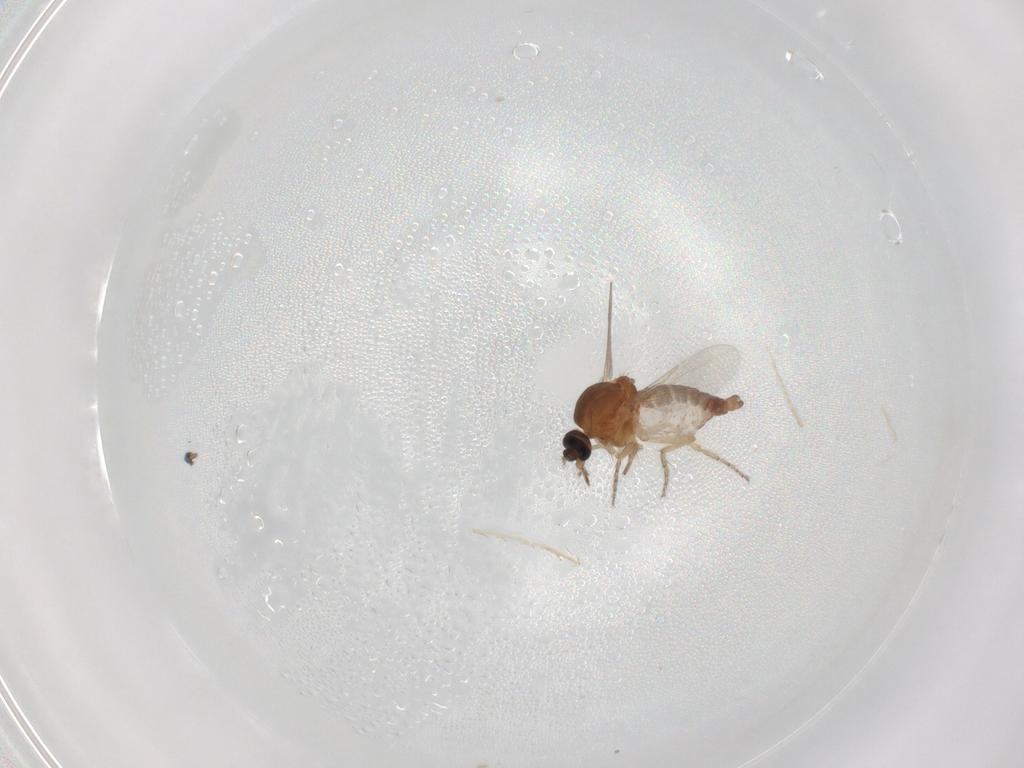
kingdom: Animalia
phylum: Arthropoda
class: Insecta
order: Diptera
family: Ceratopogonidae
